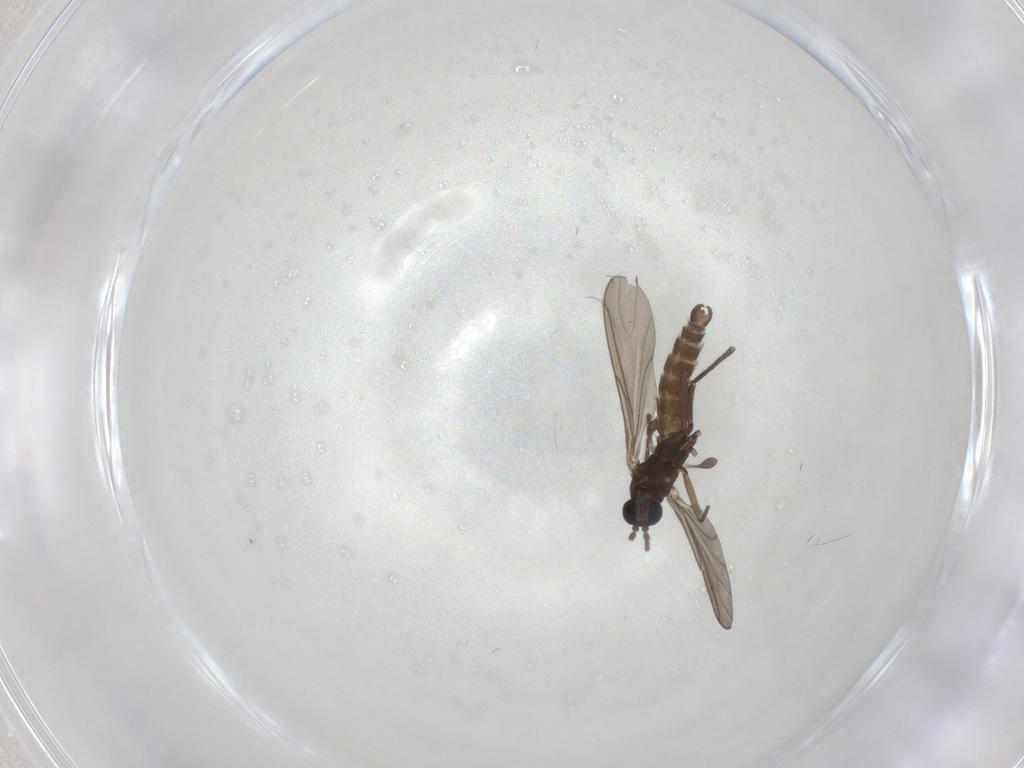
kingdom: Animalia
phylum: Arthropoda
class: Insecta
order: Diptera
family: Sciaridae
